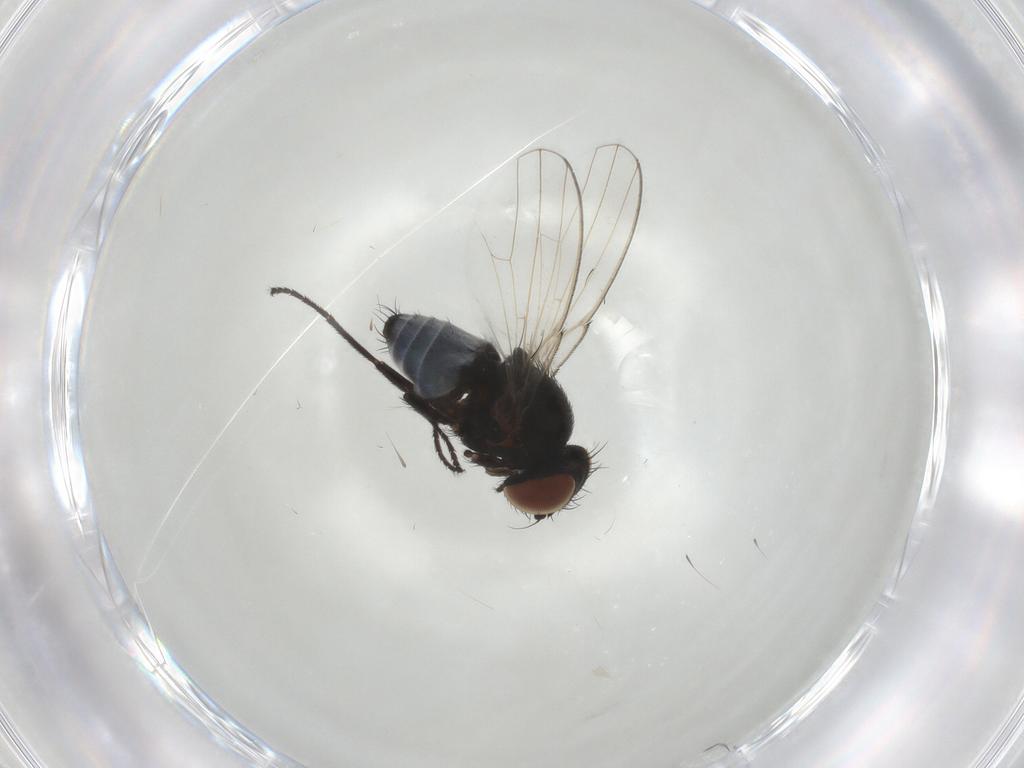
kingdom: Animalia
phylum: Arthropoda
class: Insecta
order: Diptera
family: Milichiidae
